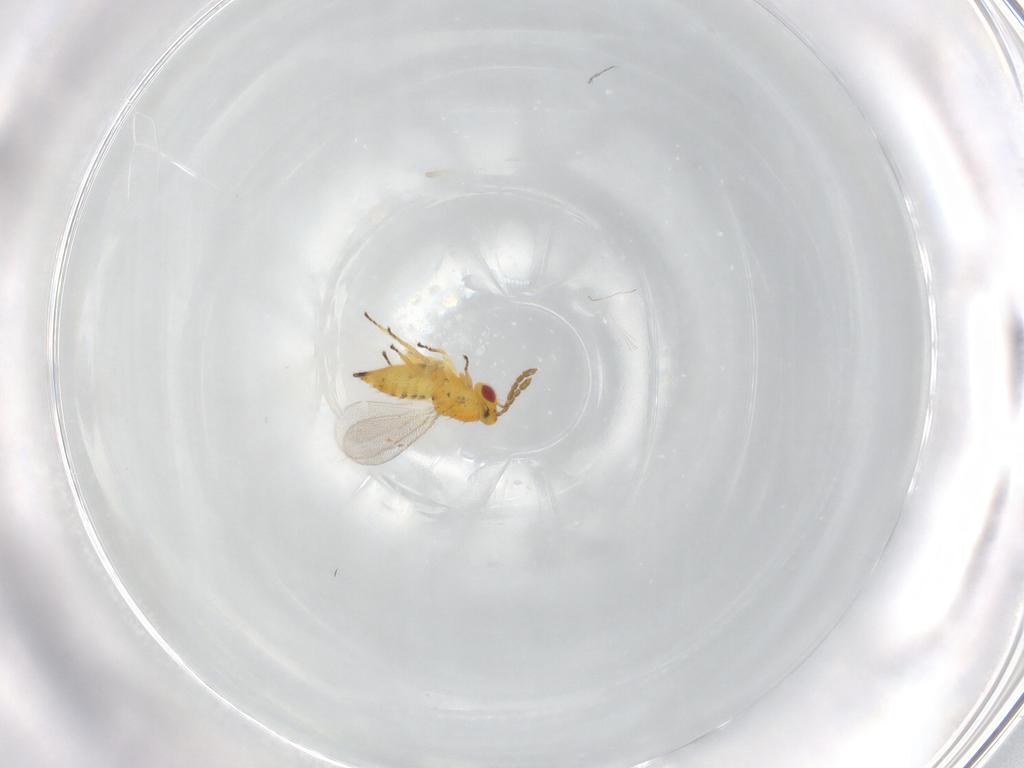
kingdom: Animalia
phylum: Arthropoda
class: Insecta
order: Hymenoptera
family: Eulophidae
